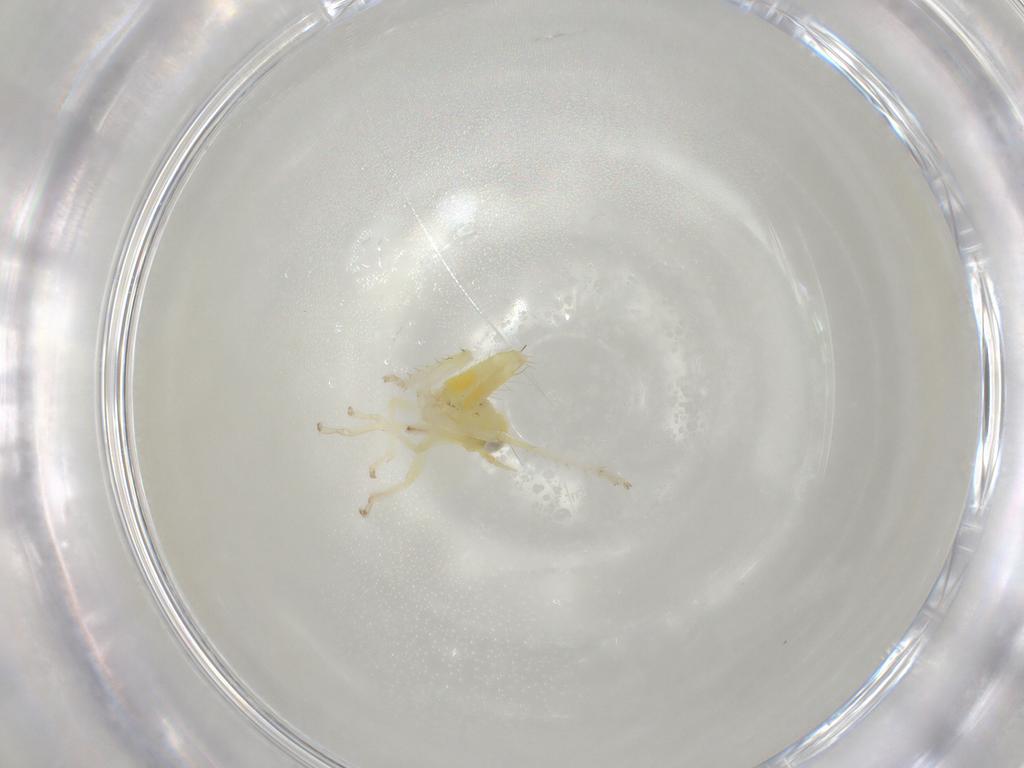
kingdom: Animalia
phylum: Arthropoda
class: Insecta
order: Hemiptera
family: Cicadellidae
